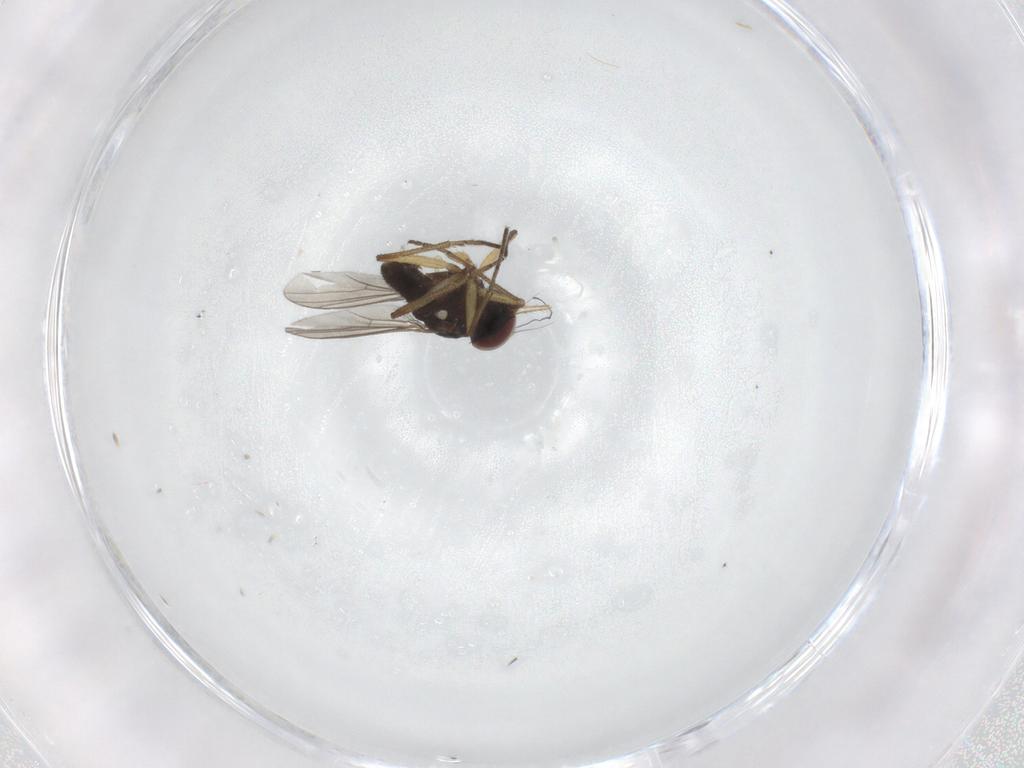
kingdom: Animalia
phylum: Arthropoda
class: Insecta
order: Diptera
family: Dolichopodidae
